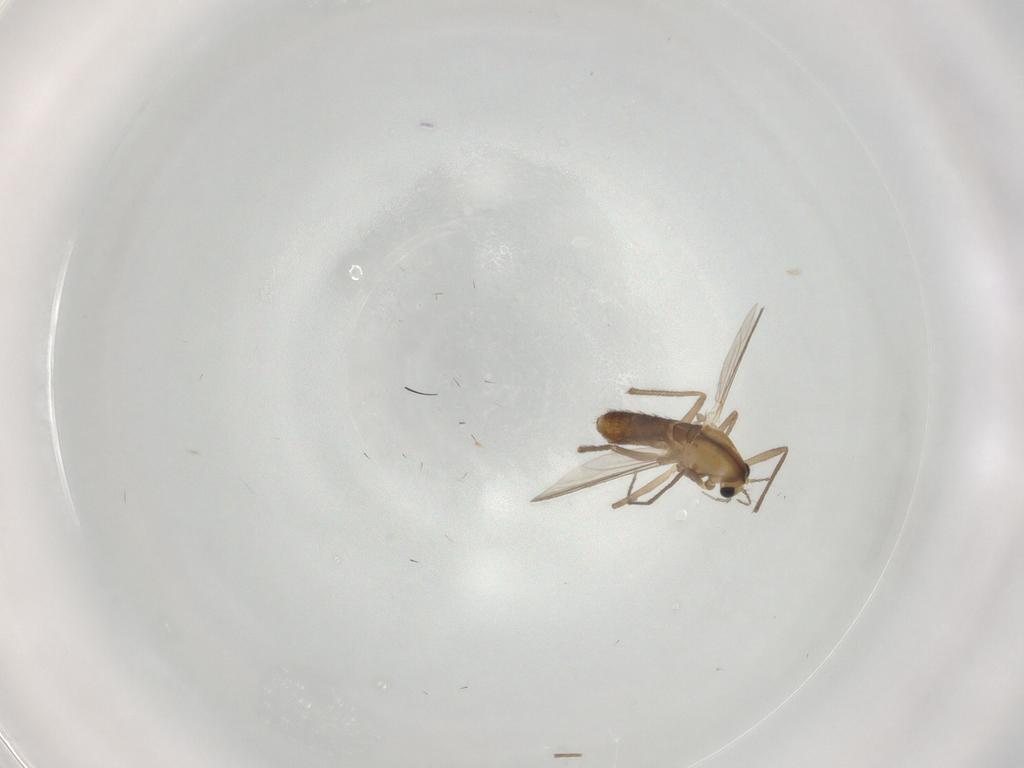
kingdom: Animalia
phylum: Arthropoda
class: Insecta
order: Diptera
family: Chironomidae
